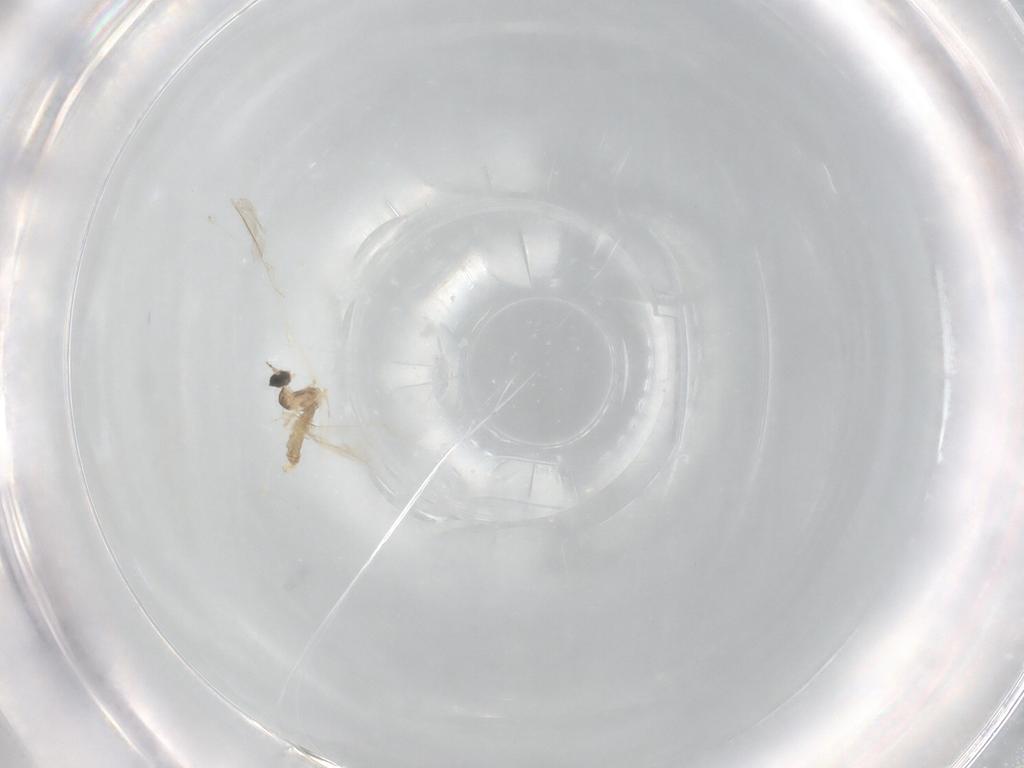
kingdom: Animalia
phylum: Arthropoda
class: Insecta
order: Diptera
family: Cecidomyiidae
